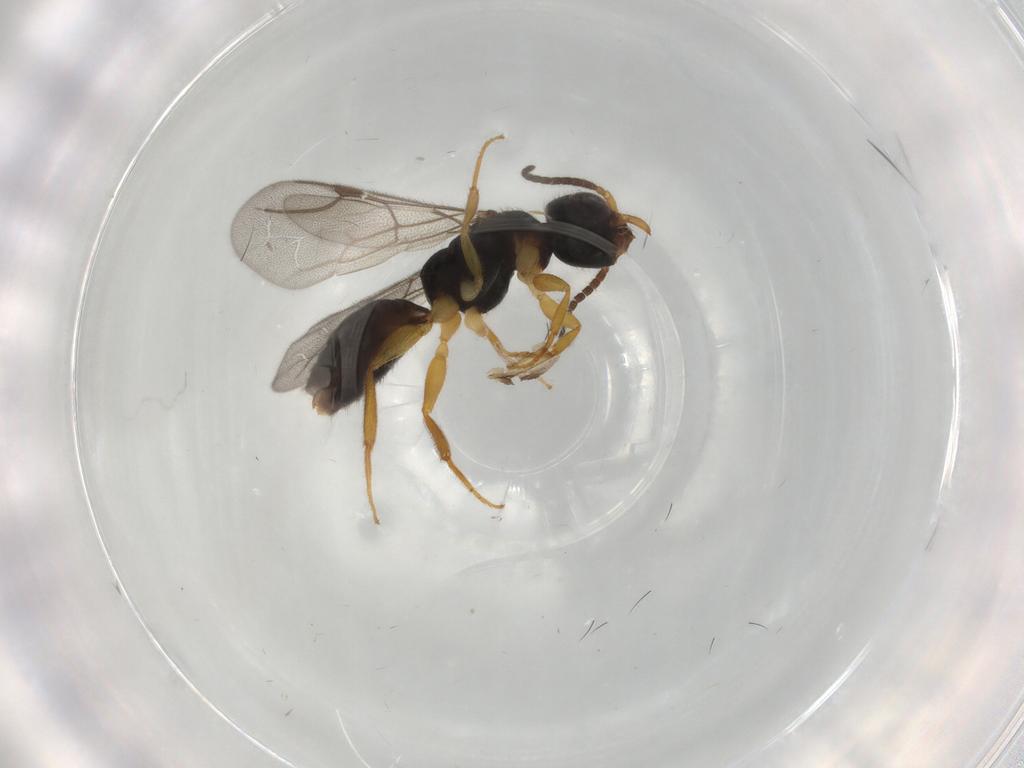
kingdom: Animalia
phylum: Arthropoda
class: Insecta
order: Hymenoptera
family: Bethylidae
